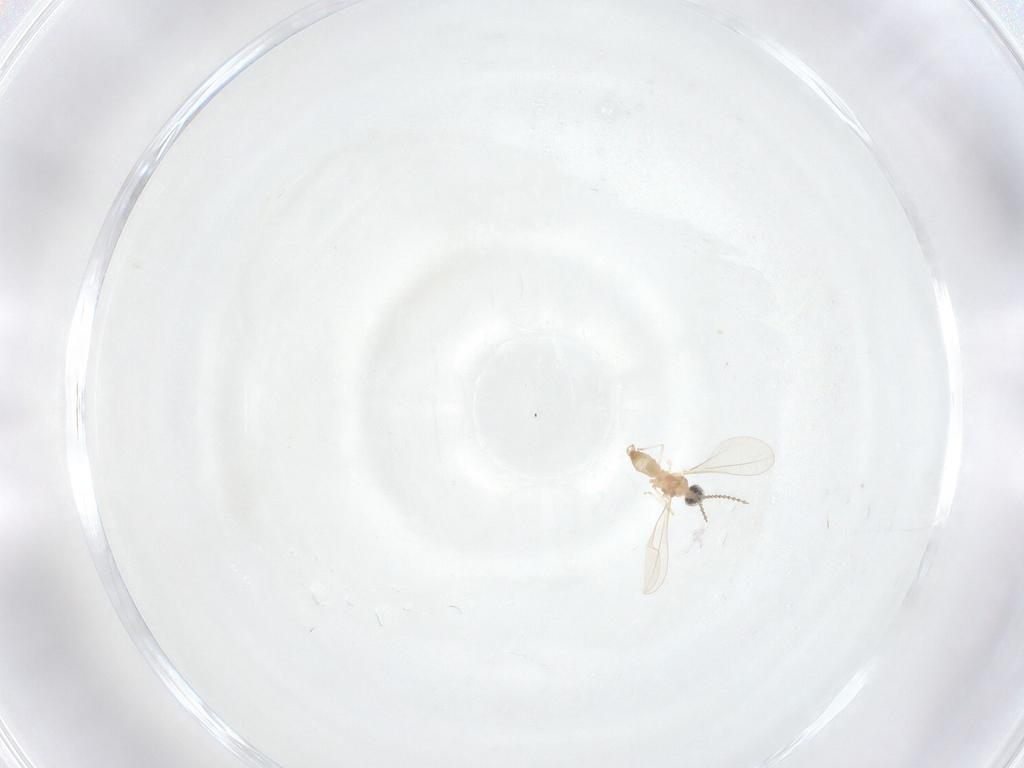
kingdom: Animalia
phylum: Arthropoda
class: Insecta
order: Diptera
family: Cecidomyiidae
